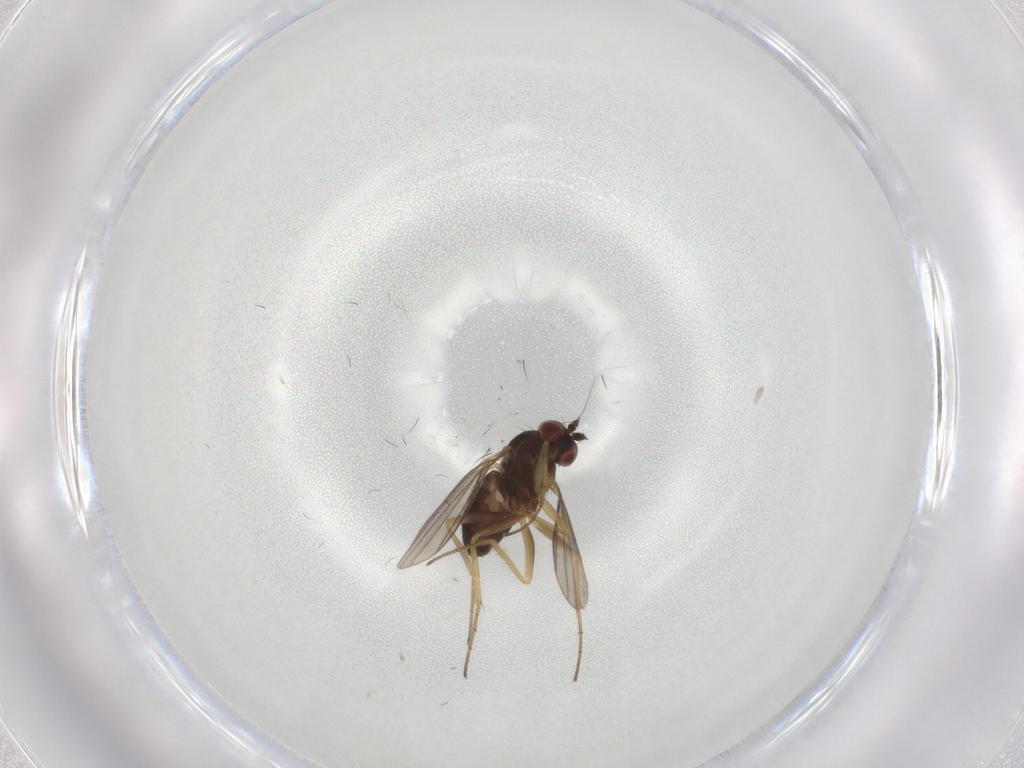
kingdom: Animalia
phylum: Arthropoda
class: Insecta
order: Diptera
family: Dolichopodidae
